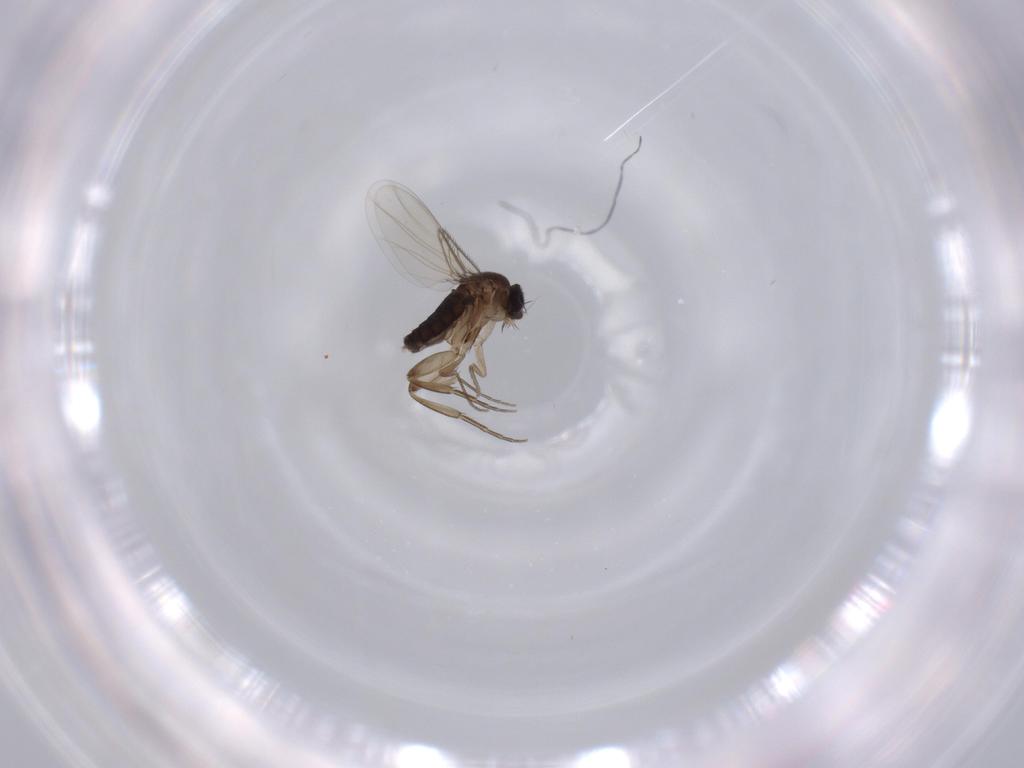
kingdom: Animalia
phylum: Arthropoda
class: Insecta
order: Diptera
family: Phoridae
